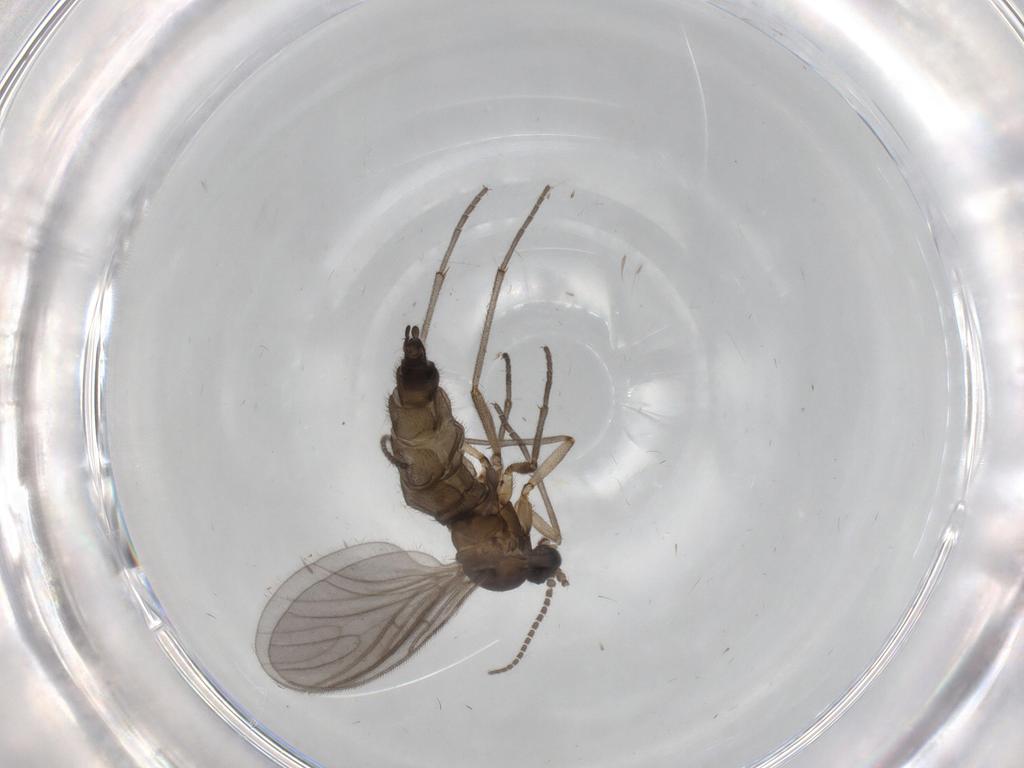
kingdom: Animalia
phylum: Arthropoda
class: Insecta
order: Diptera
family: Sciaridae
